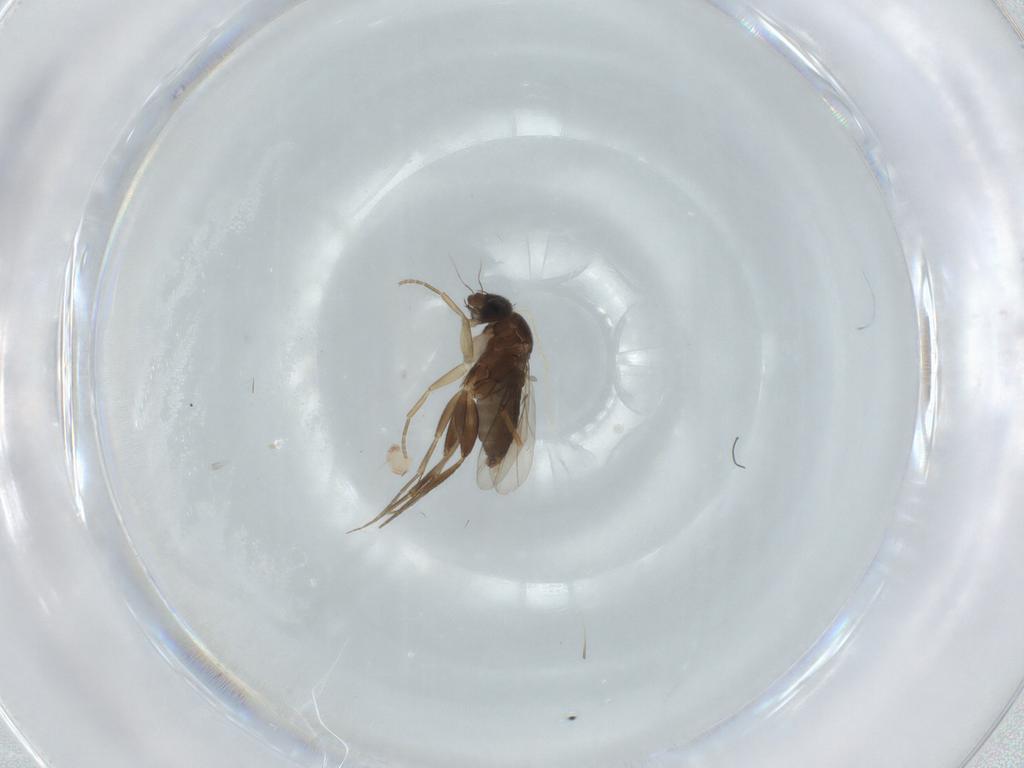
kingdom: Animalia
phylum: Arthropoda
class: Insecta
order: Diptera
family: Phoridae
